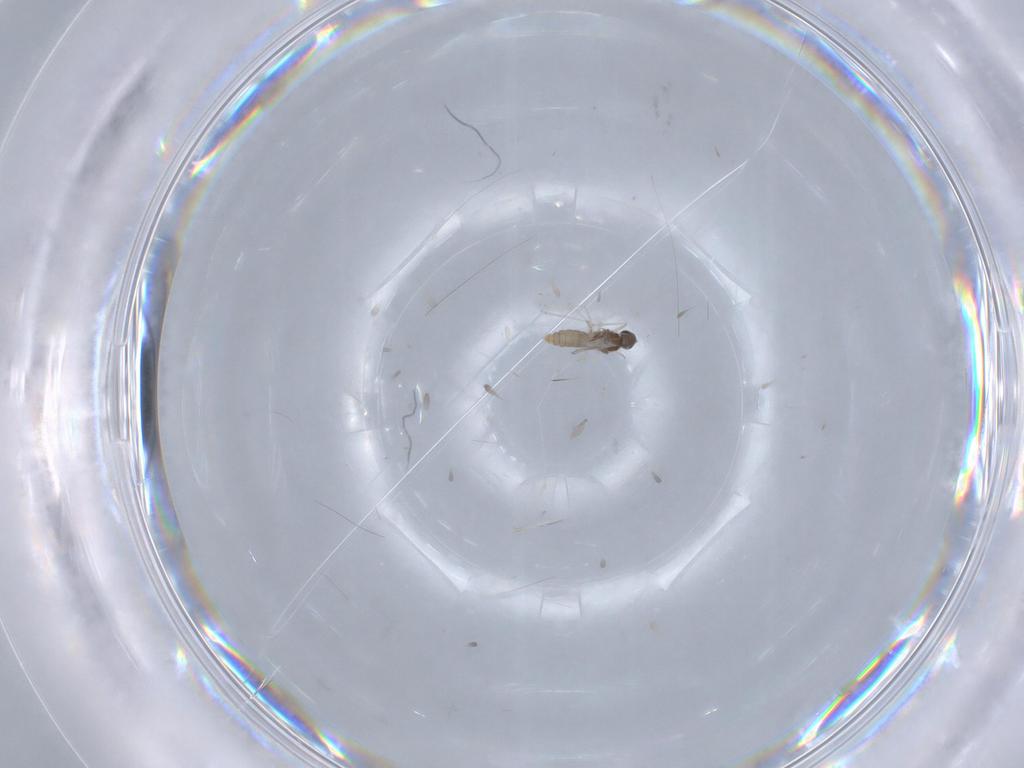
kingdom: Animalia
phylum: Arthropoda
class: Insecta
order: Diptera
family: Cecidomyiidae
